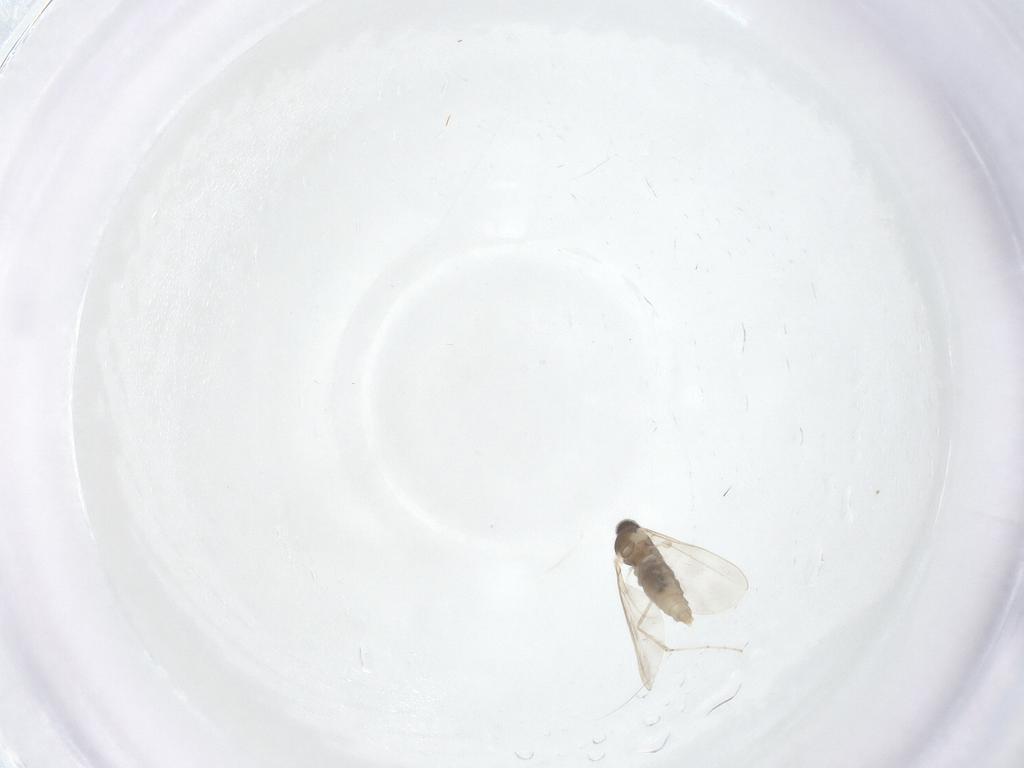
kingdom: Animalia
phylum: Arthropoda
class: Insecta
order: Diptera
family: Cecidomyiidae
